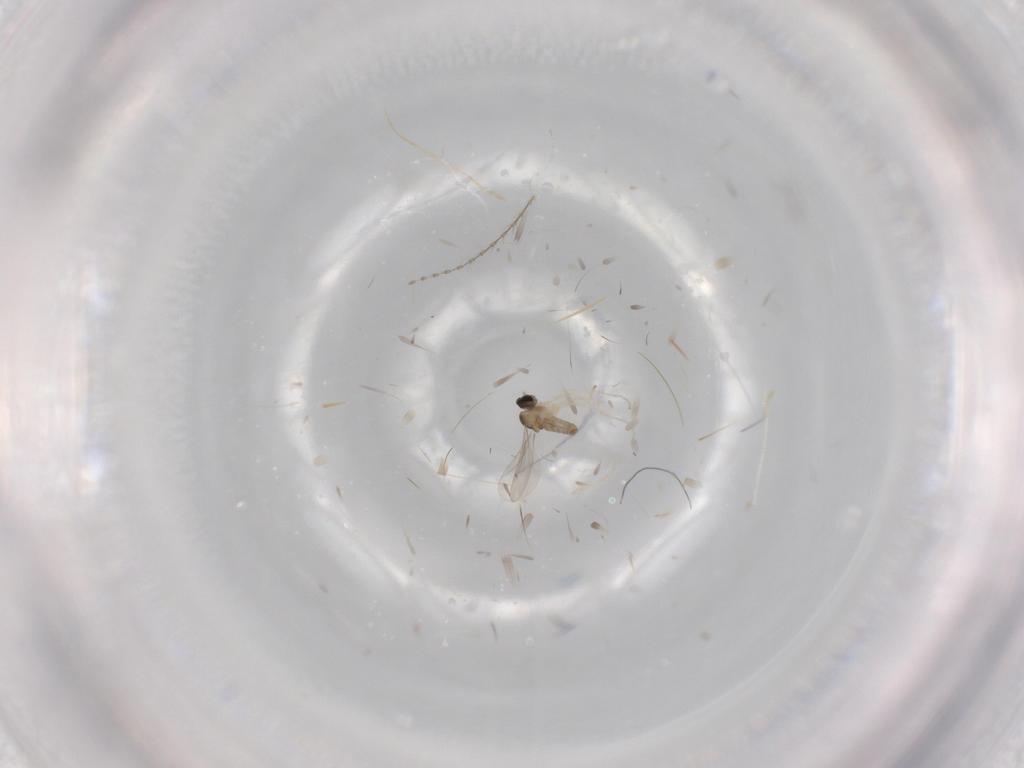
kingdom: Animalia
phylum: Arthropoda
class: Insecta
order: Diptera
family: Cecidomyiidae
